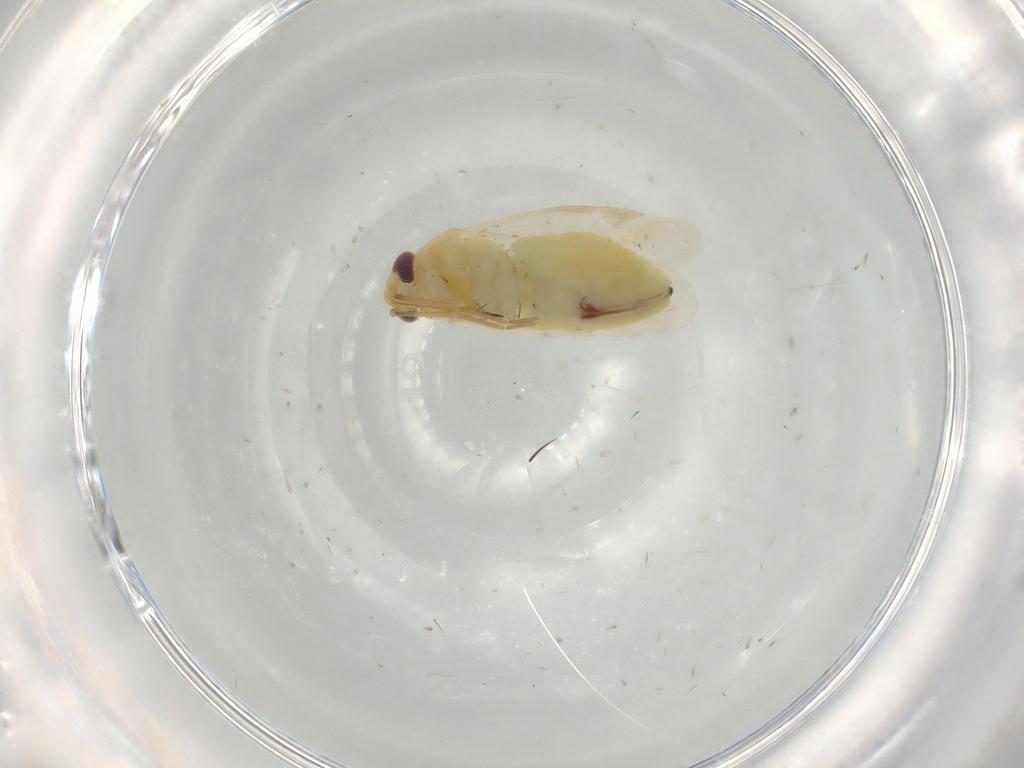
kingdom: Animalia
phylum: Arthropoda
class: Insecta
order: Hemiptera
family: Miridae
